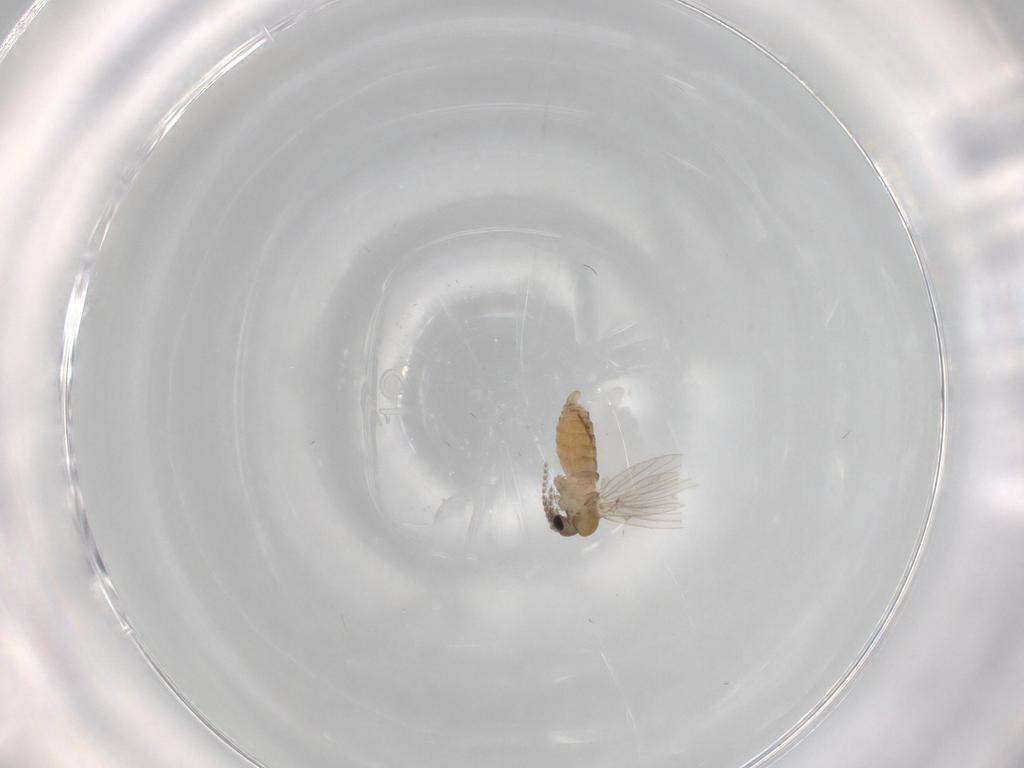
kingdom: Animalia
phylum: Arthropoda
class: Insecta
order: Diptera
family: Psychodidae
